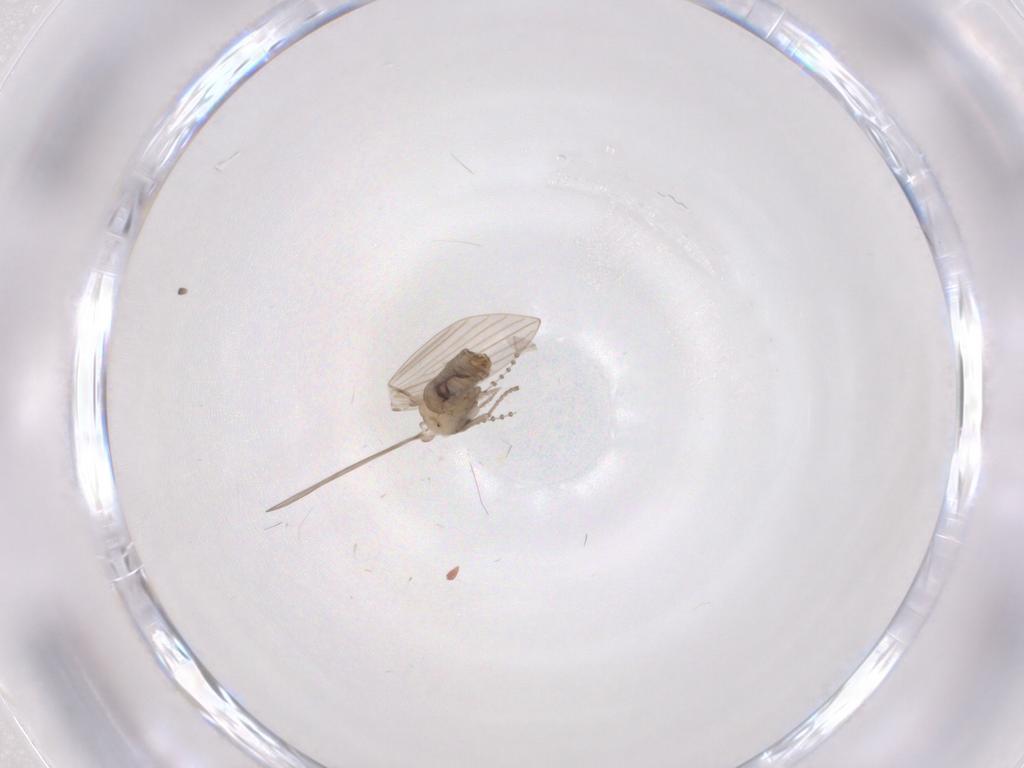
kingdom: Animalia
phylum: Arthropoda
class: Insecta
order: Diptera
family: Psychodidae
